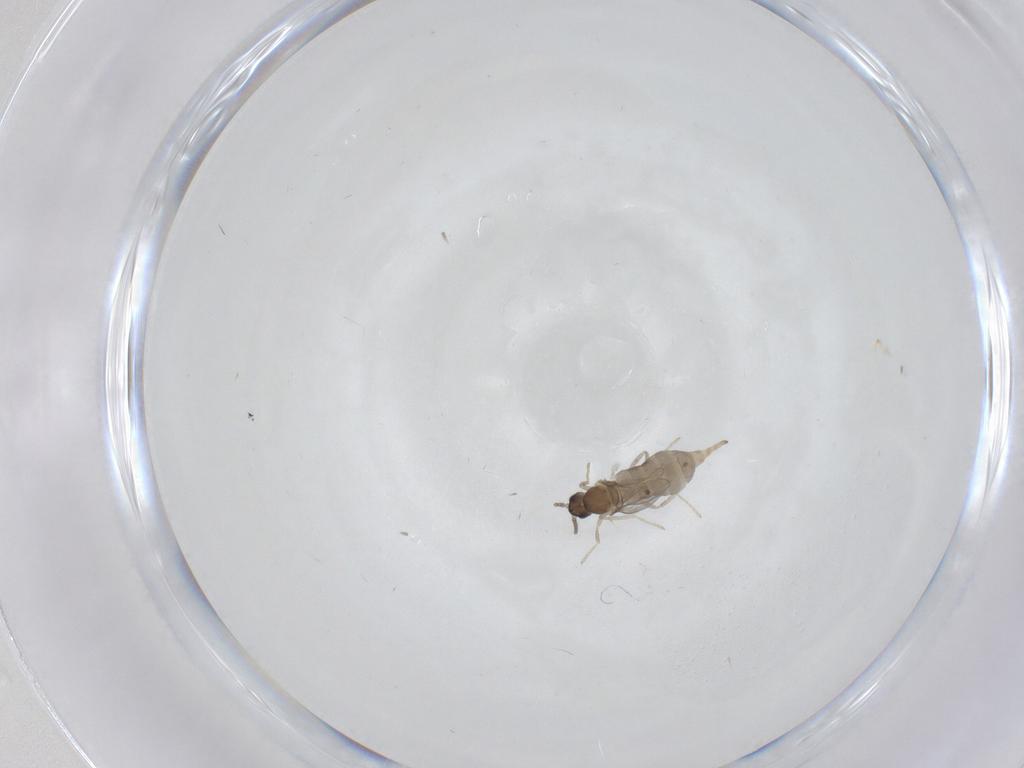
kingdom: Animalia
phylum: Arthropoda
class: Insecta
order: Diptera
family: Phoridae
